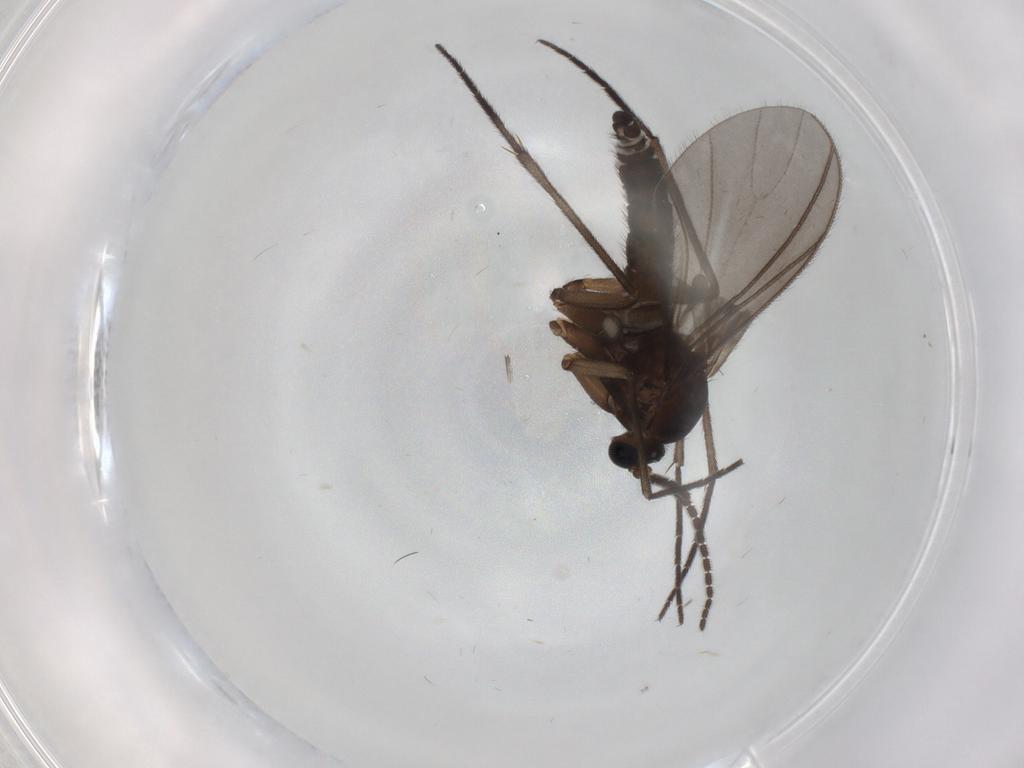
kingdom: Animalia
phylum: Arthropoda
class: Insecta
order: Diptera
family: Sciaridae
